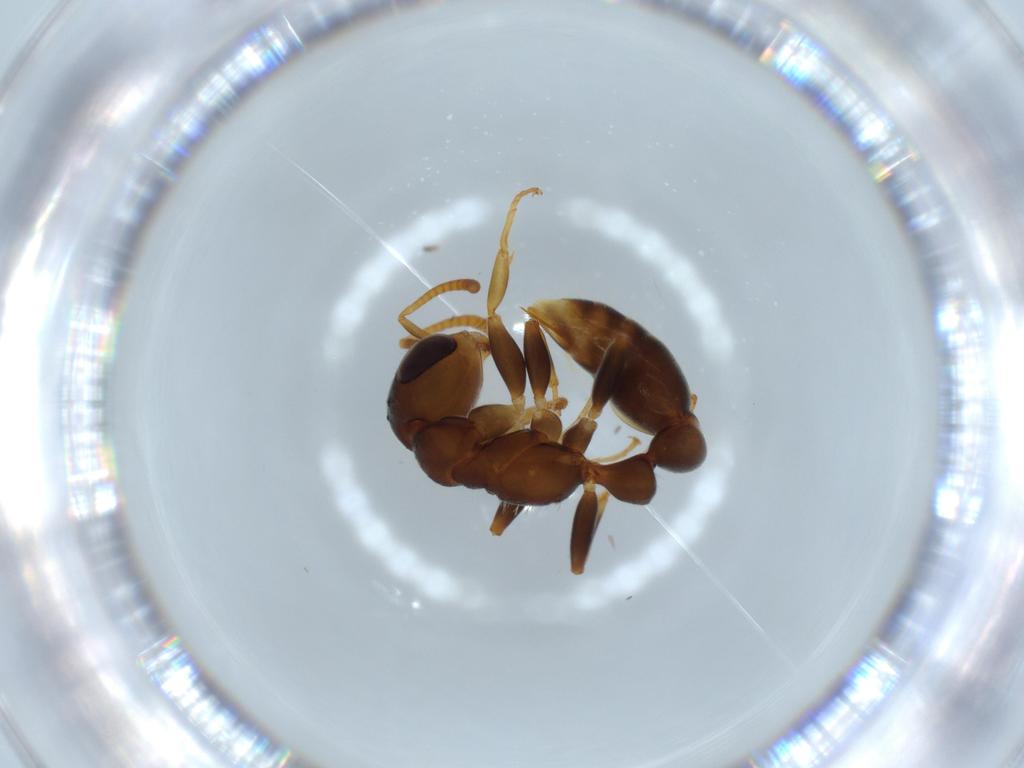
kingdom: Animalia
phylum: Arthropoda
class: Insecta
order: Hymenoptera
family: Formicidae
